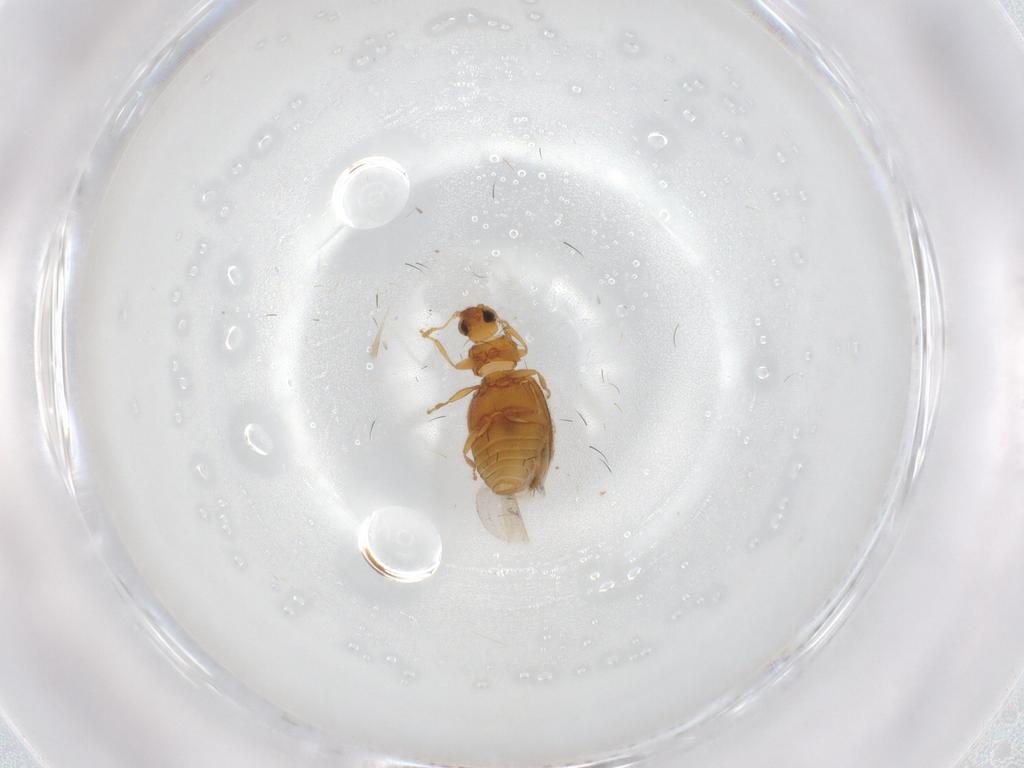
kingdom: Animalia
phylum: Arthropoda
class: Insecta
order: Coleoptera
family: Latridiidae
